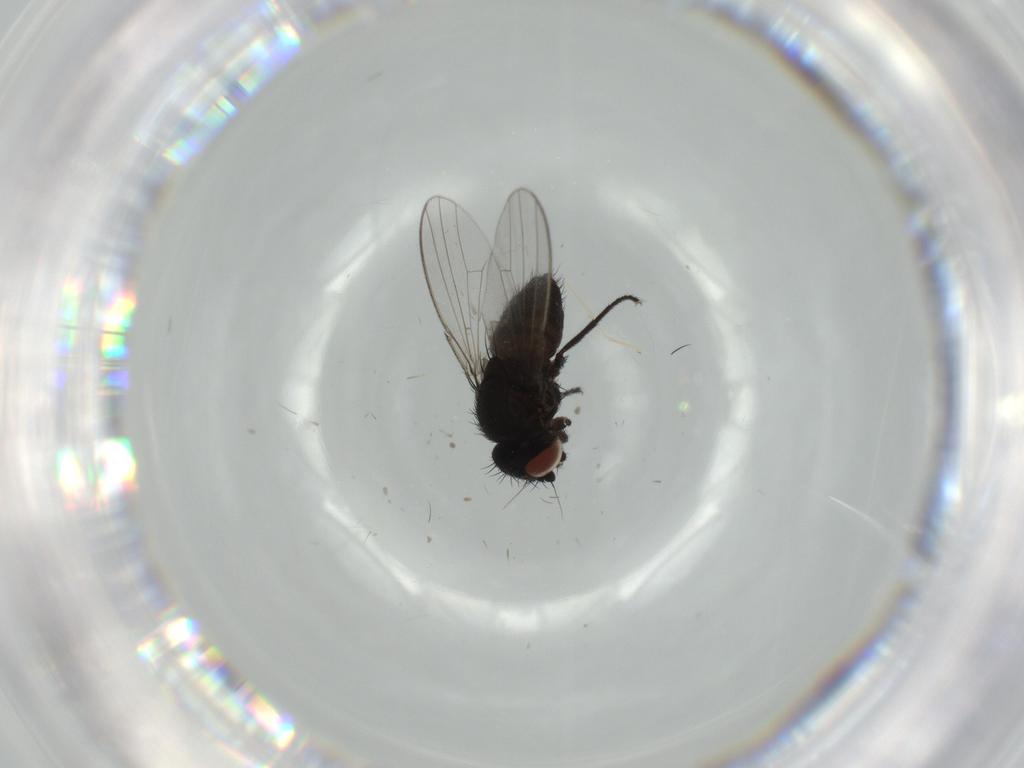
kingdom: Animalia
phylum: Arthropoda
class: Insecta
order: Diptera
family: Milichiidae
